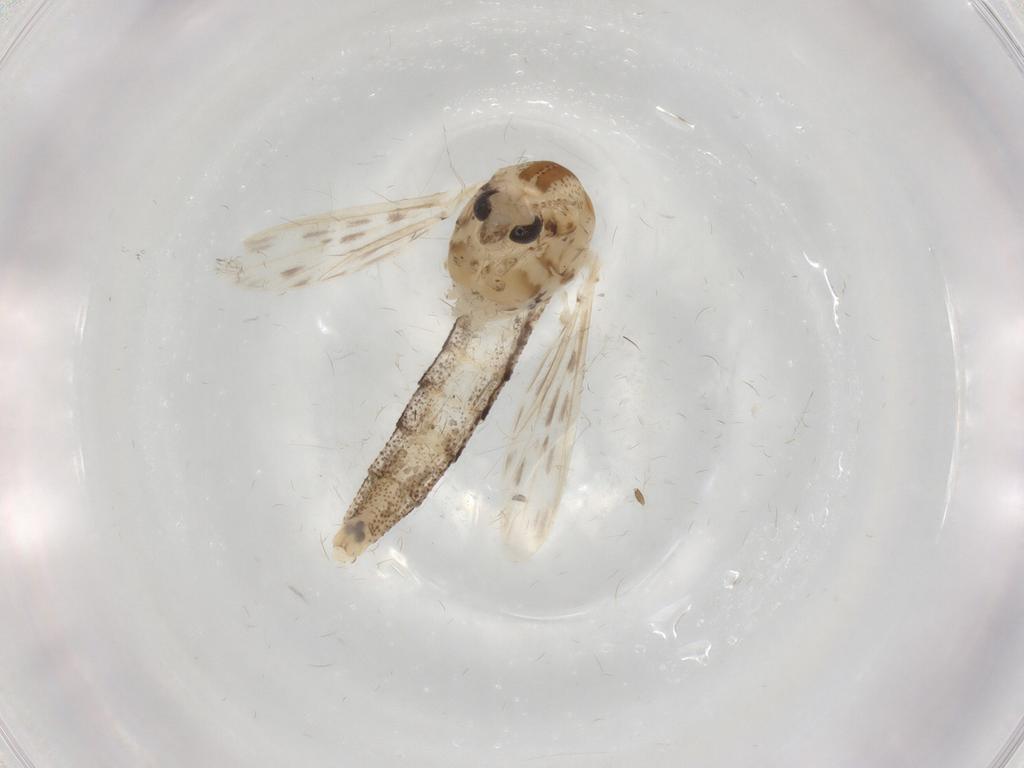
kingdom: Animalia
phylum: Arthropoda
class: Insecta
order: Diptera
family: Chaoboridae
